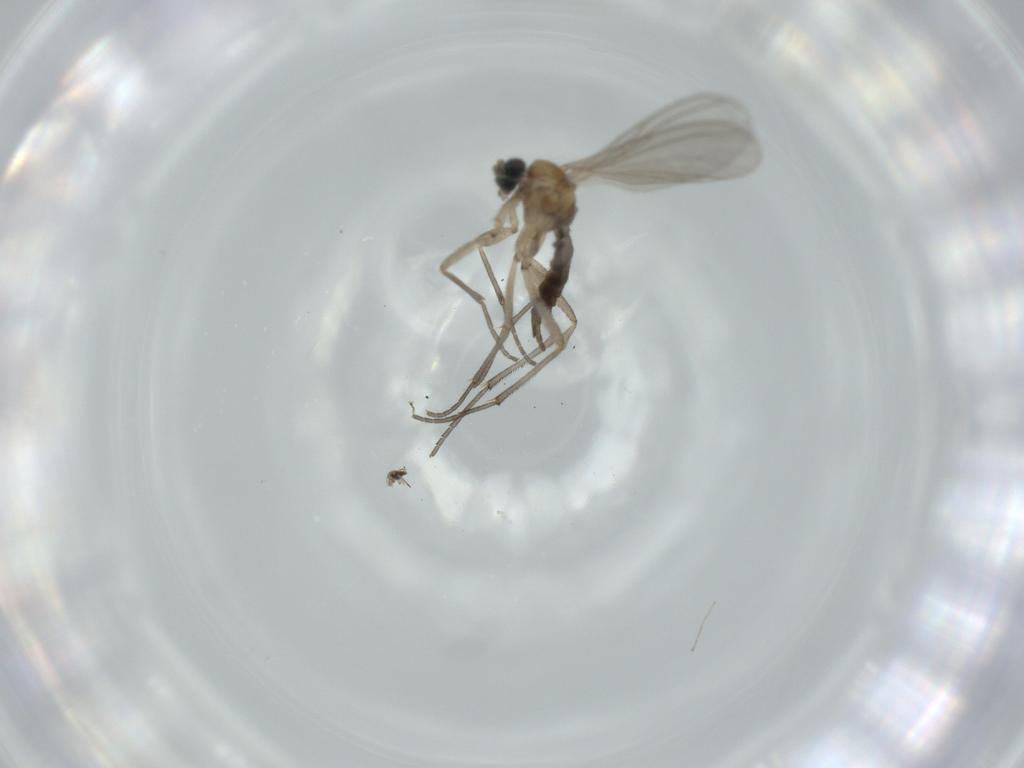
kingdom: Animalia
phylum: Arthropoda
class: Insecta
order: Diptera
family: Sciaridae
